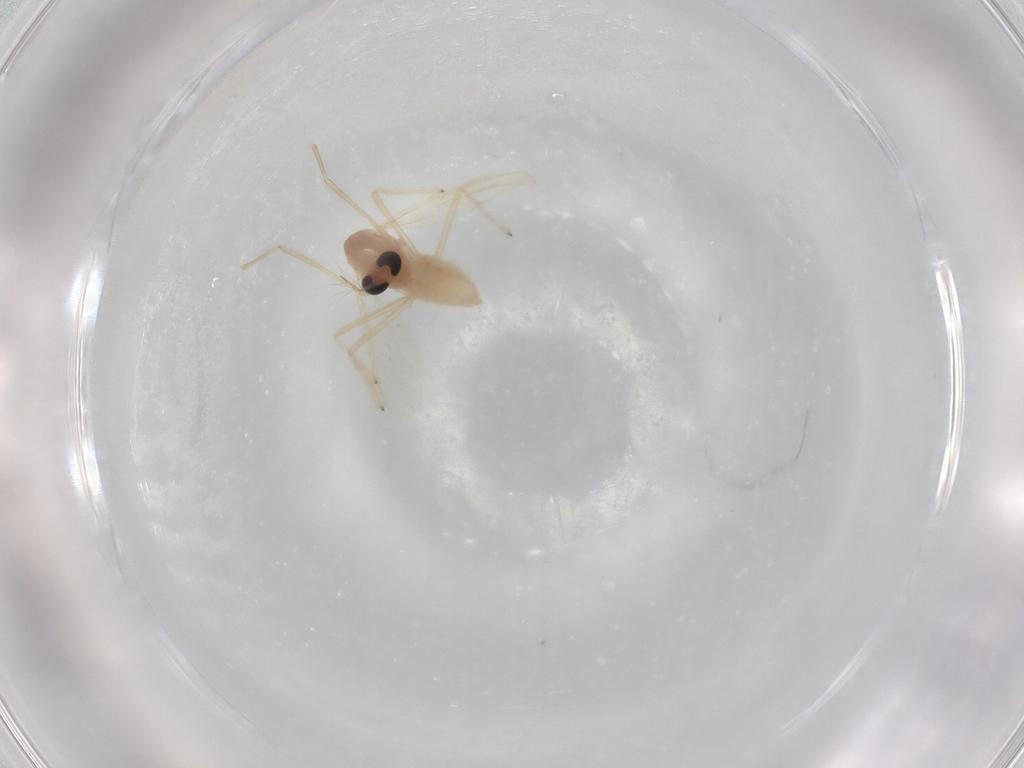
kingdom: Animalia
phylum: Arthropoda
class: Insecta
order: Diptera
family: Chironomidae
